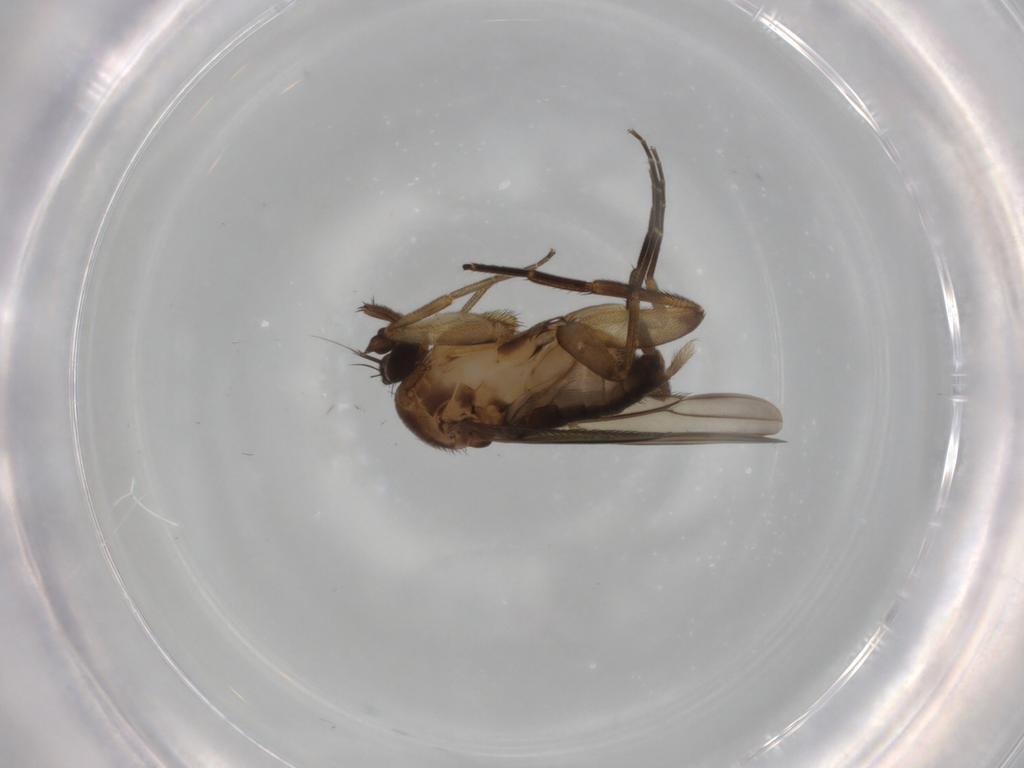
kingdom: Animalia
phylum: Arthropoda
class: Insecta
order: Diptera
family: Phoridae
